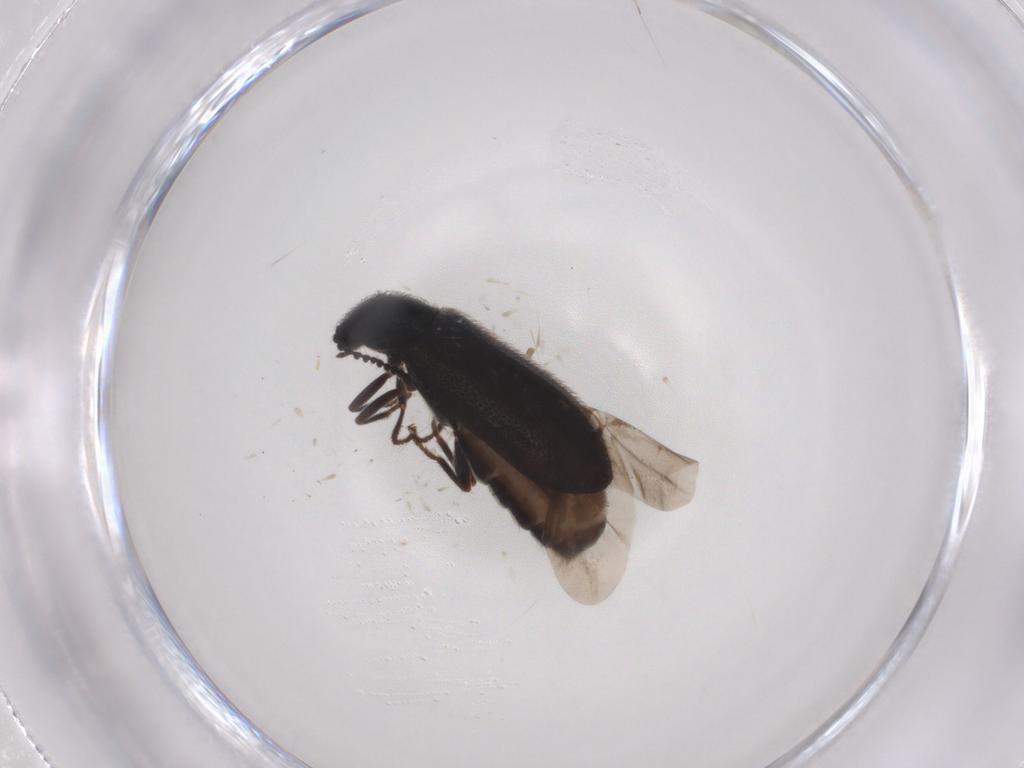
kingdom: Animalia
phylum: Arthropoda
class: Insecta
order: Coleoptera
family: Melyridae
